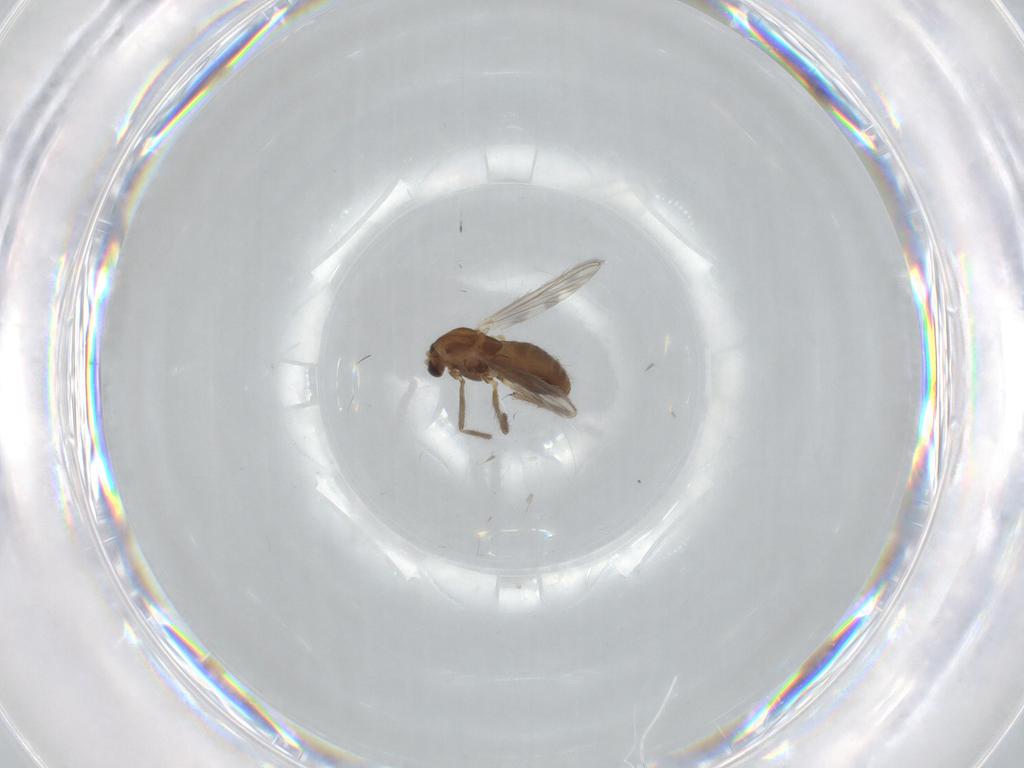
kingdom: Animalia
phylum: Arthropoda
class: Insecta
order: Diptera
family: Chironomidae
